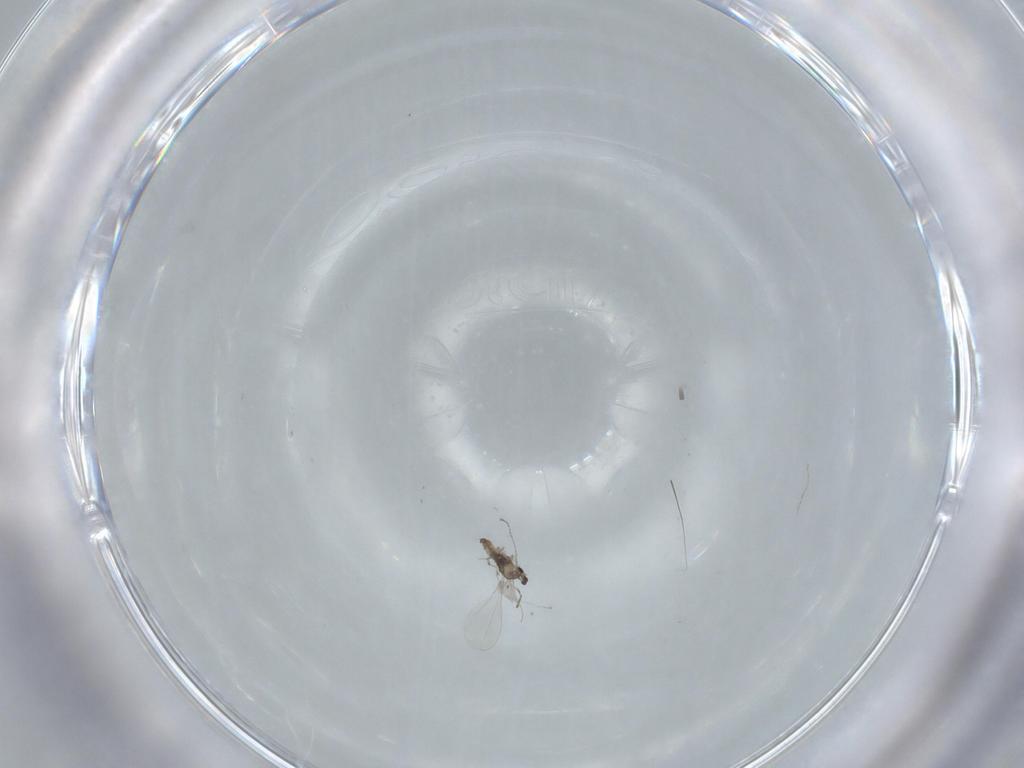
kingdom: Animalia
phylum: Arthropoda
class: Insecta
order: Diptera
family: Cecidomyiidae
